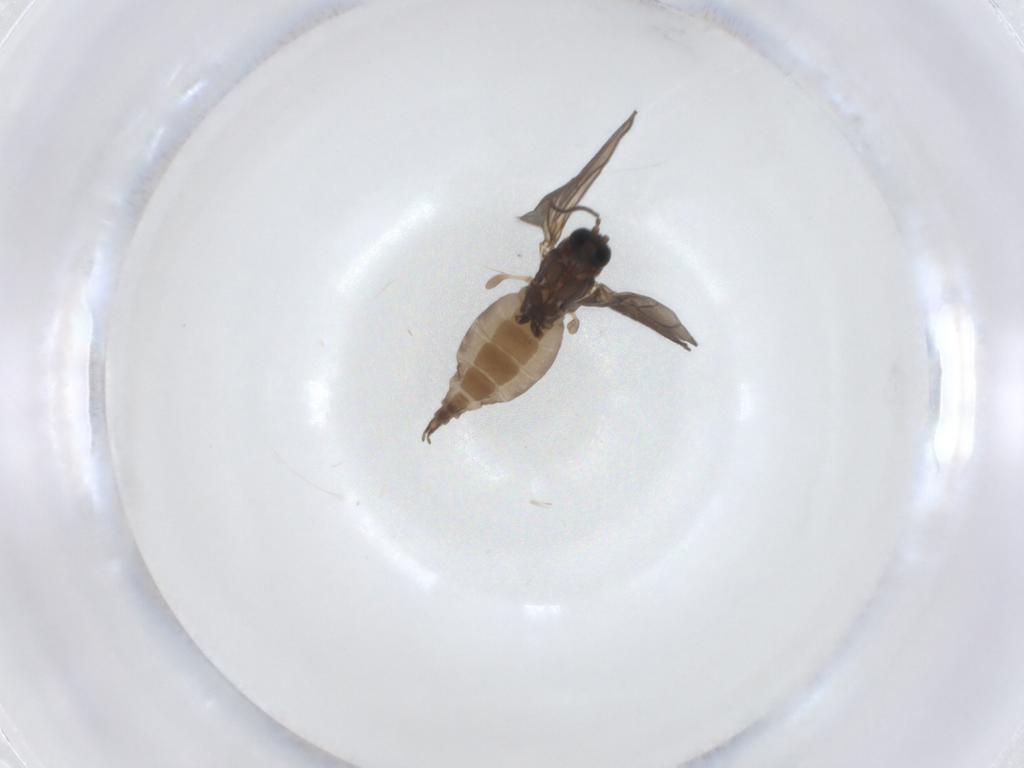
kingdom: Animalia
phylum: Arthropoda
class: Insecta
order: Diptera
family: Sciaridae
